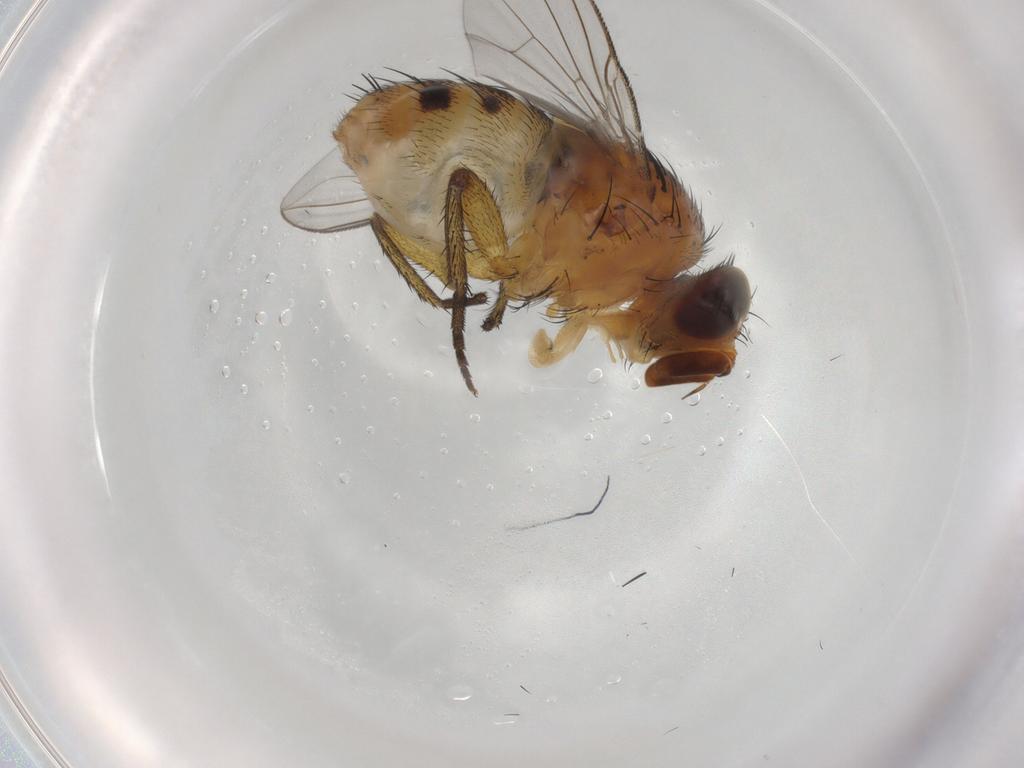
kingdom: Animalia
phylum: Arthropoda
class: Insecta
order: Diptera
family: Tachinidae
